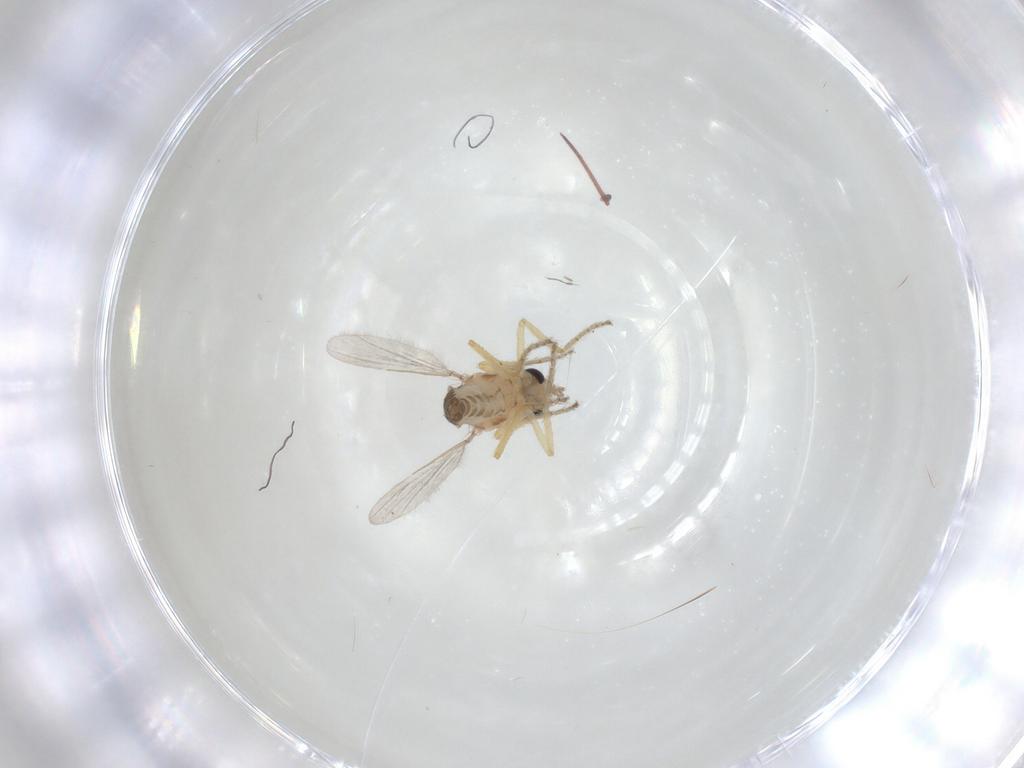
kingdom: Animalia
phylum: Arthropoda
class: Insecta
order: Diptera
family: Ceratopogonidae
